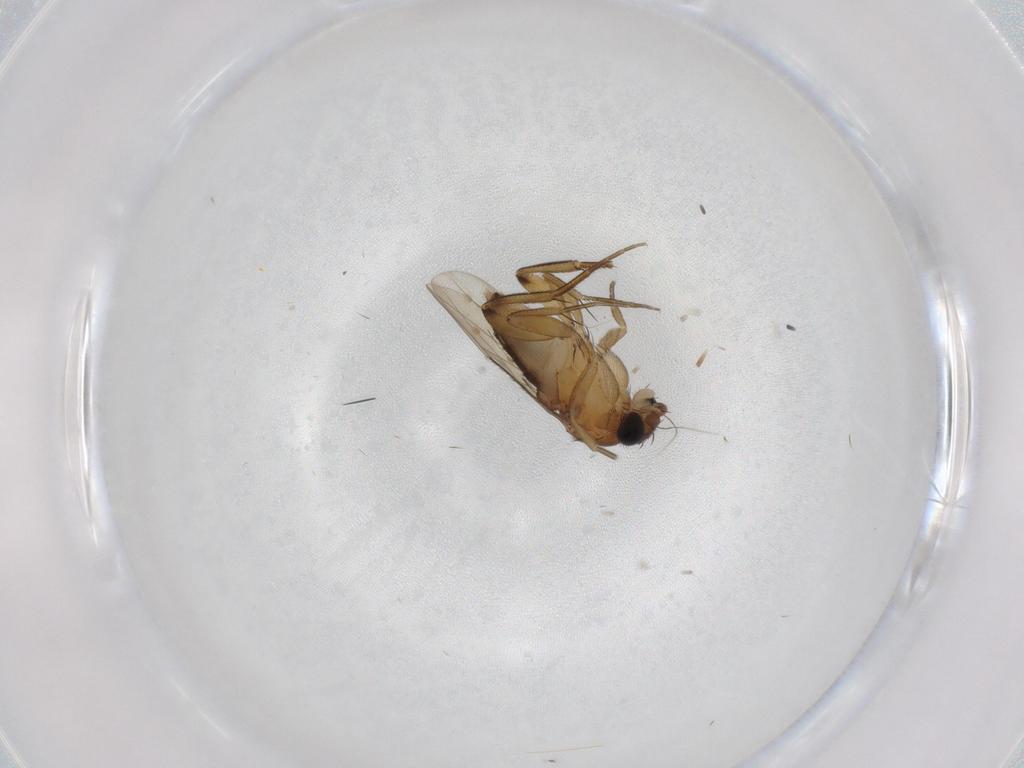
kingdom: Animalia
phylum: Arthropoda
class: Insecta
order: Diptera
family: Phoridae
